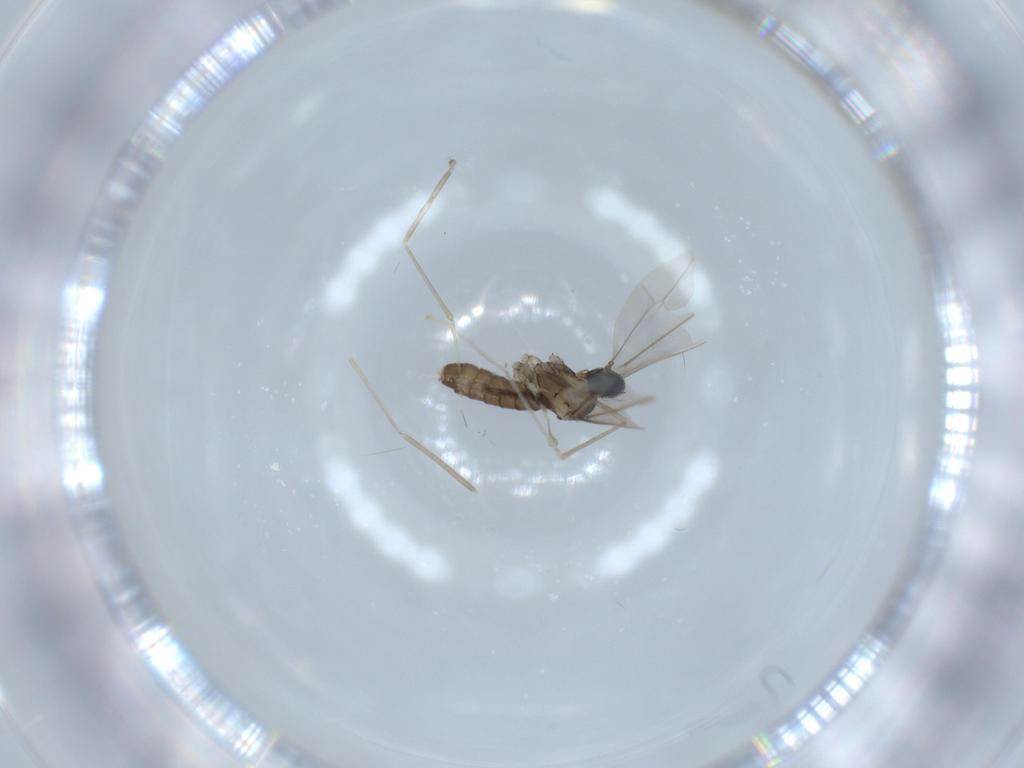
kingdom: Animalia
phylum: Arthropoda
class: Insecta
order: Diptera
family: Cecidomyiidae
